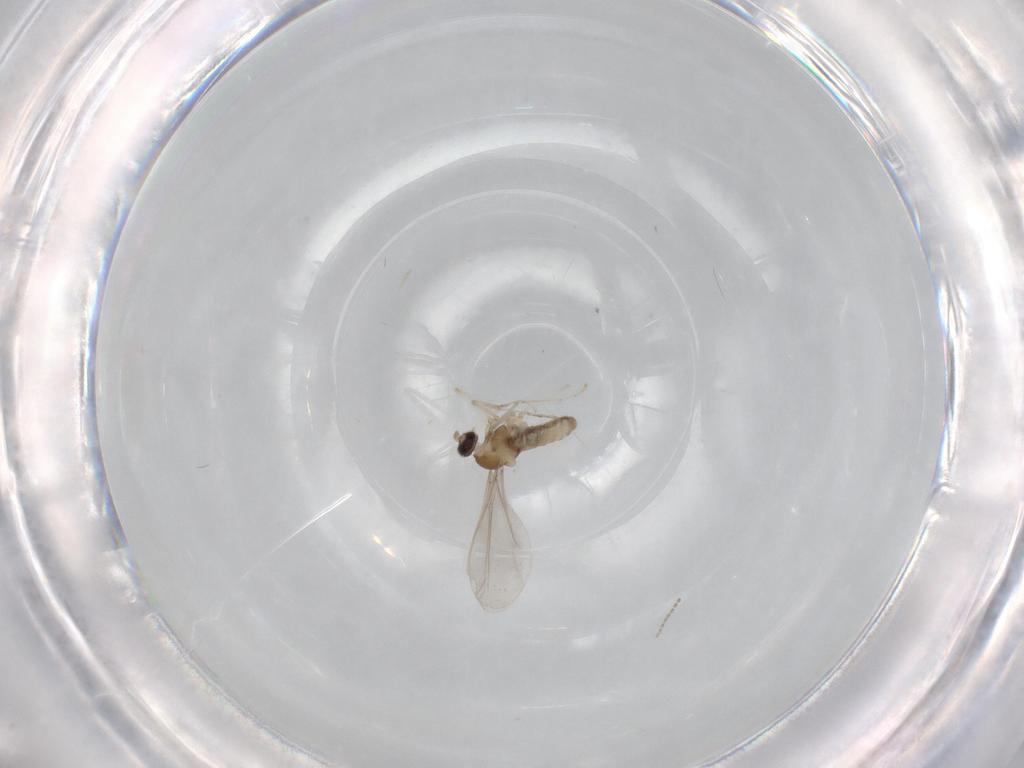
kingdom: Animalia
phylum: Arthropoda
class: Insecta
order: Diptera
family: Cecidomyiidae
